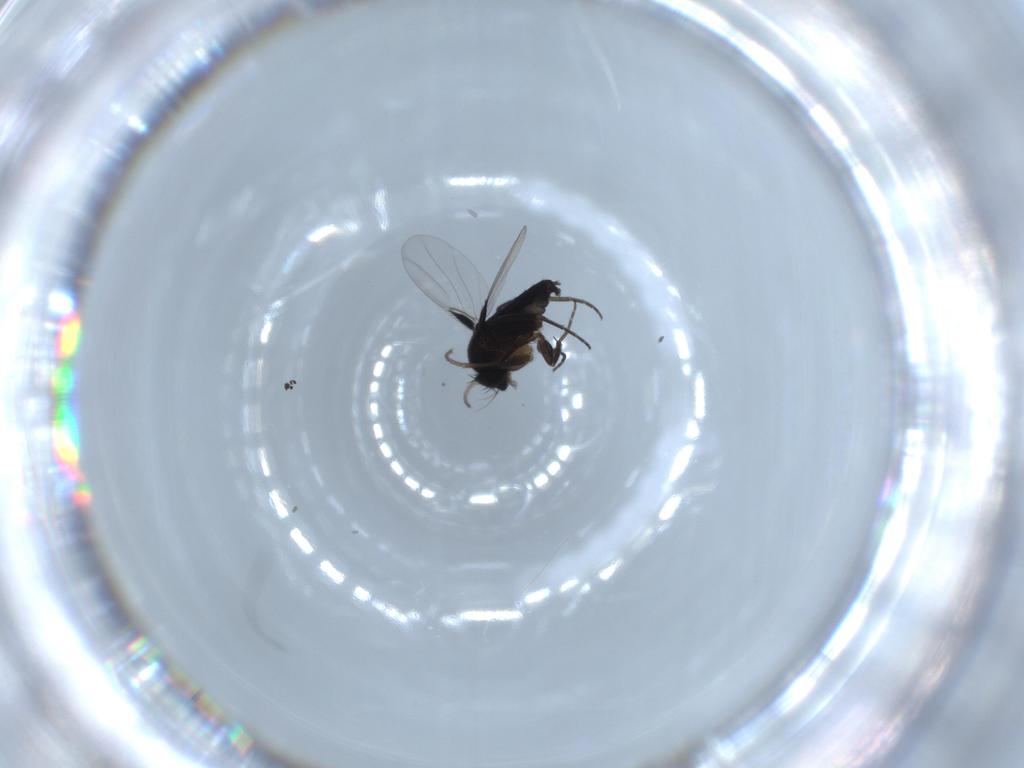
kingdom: Animalia
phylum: Arthropoda
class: Insecta
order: Diptera
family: Phoridae
